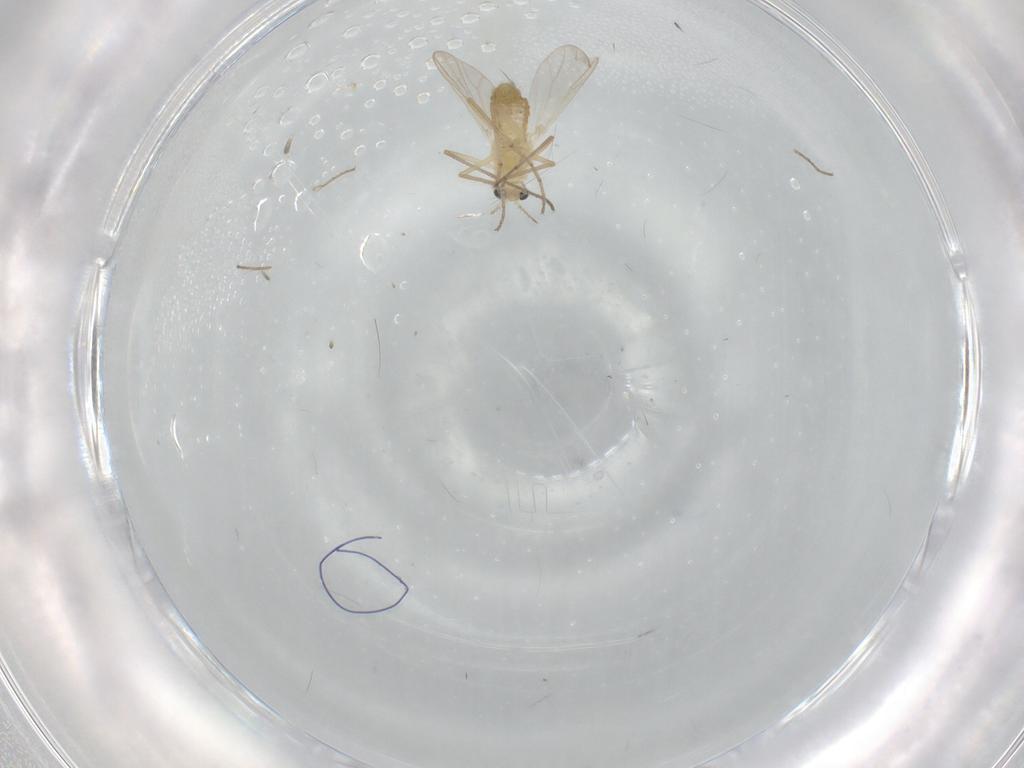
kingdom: Animalia
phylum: Arthropoda
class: Insecta
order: Diptera
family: Chironomidae
